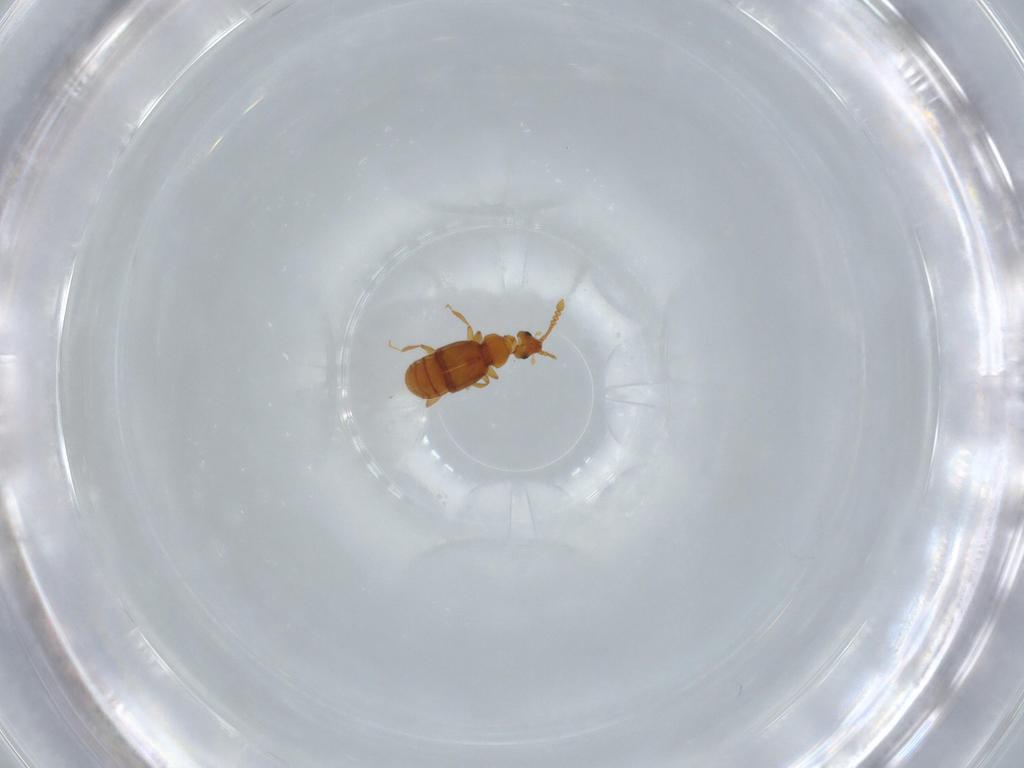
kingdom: Animalia
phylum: Arthropoda
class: Insecta
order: Coleoptera
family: Staphylinidae
